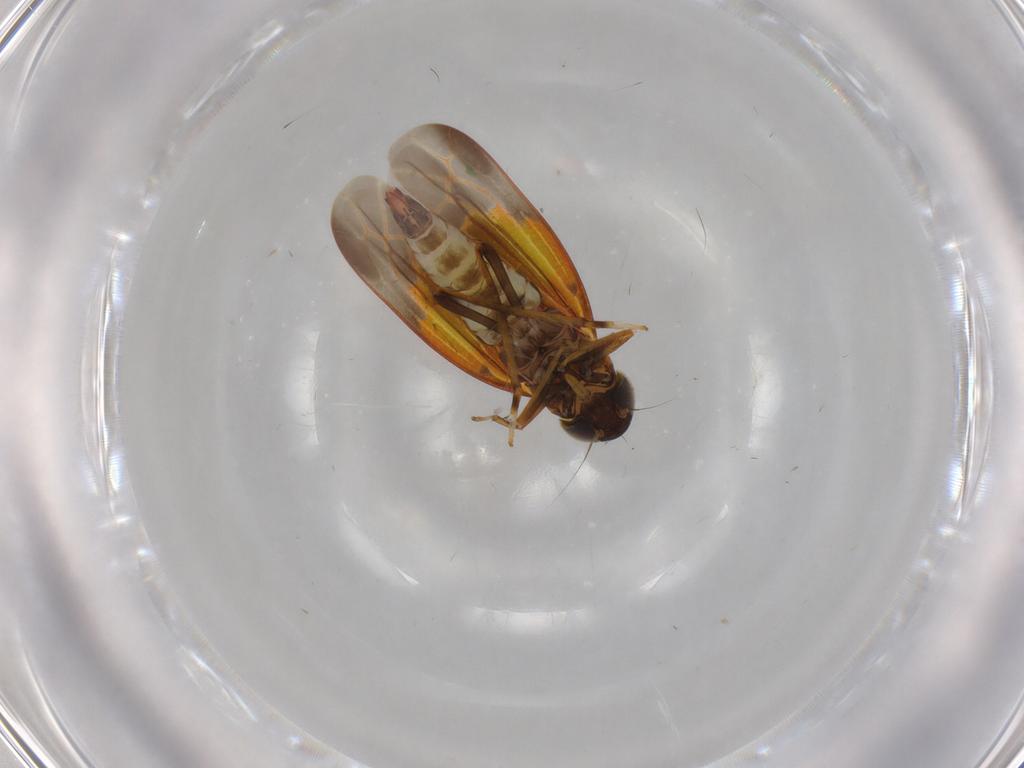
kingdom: Animalia
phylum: Arthropoda
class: Insecta
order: Hemiptera
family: Cicadellidae
